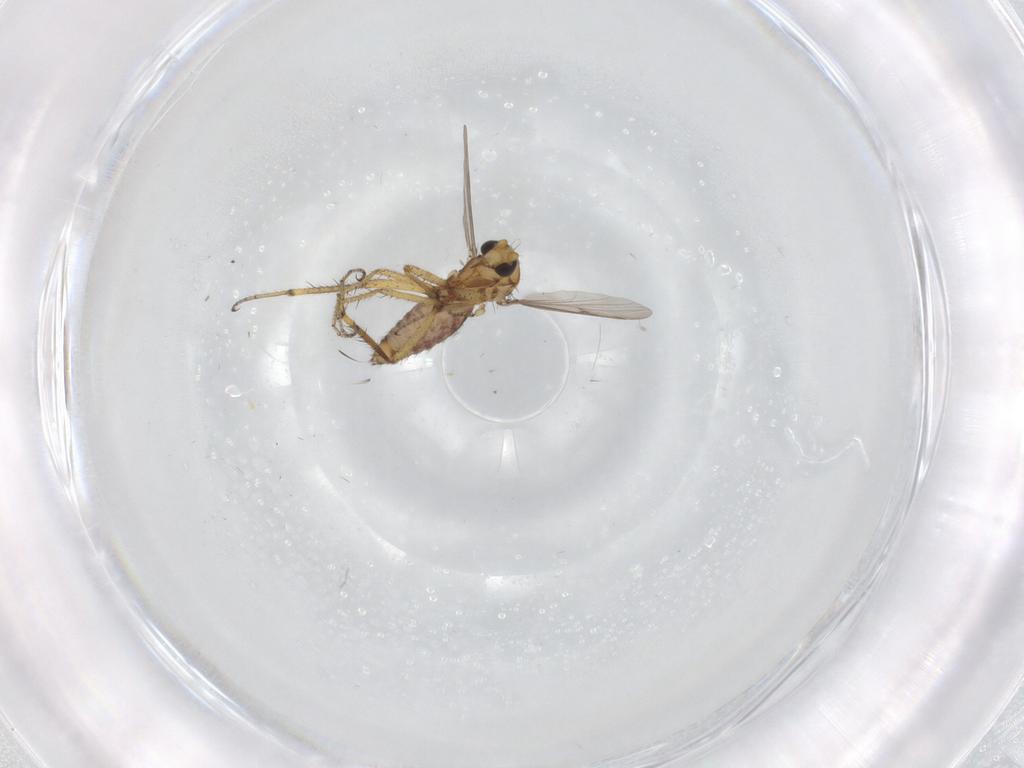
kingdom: Animalia
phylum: Arthropoda
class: Insecta
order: Diptera
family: Ceratopogonidae
